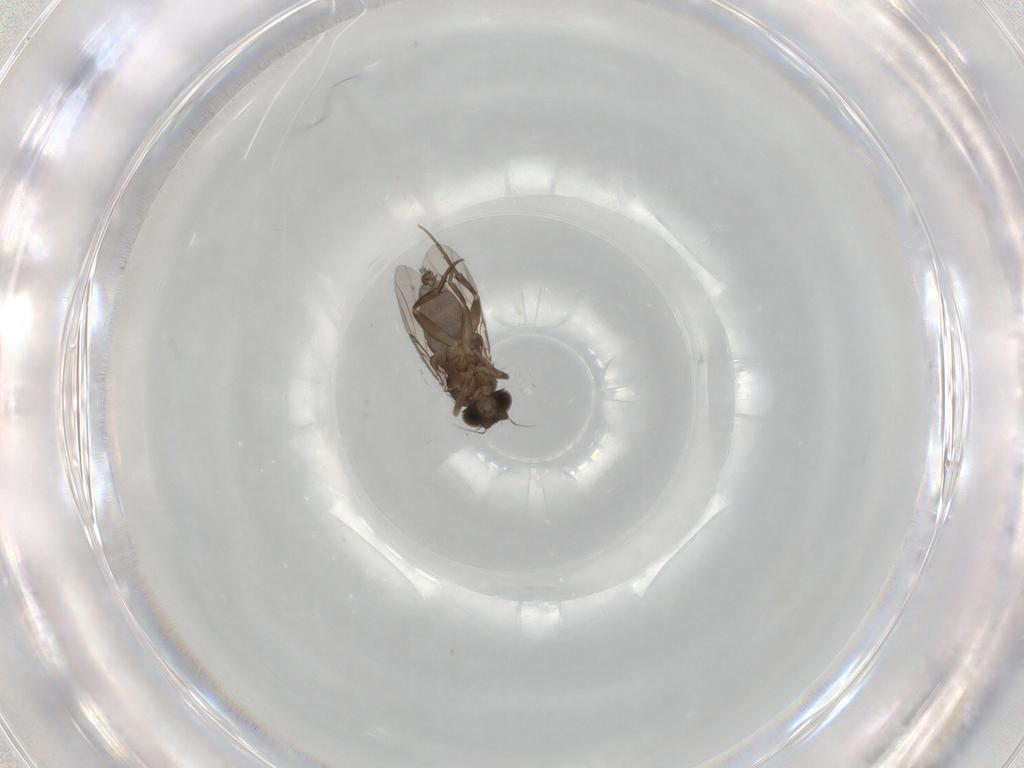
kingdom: Animalia
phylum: Arthropoda
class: Insecta
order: Diptera
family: Phoridae
